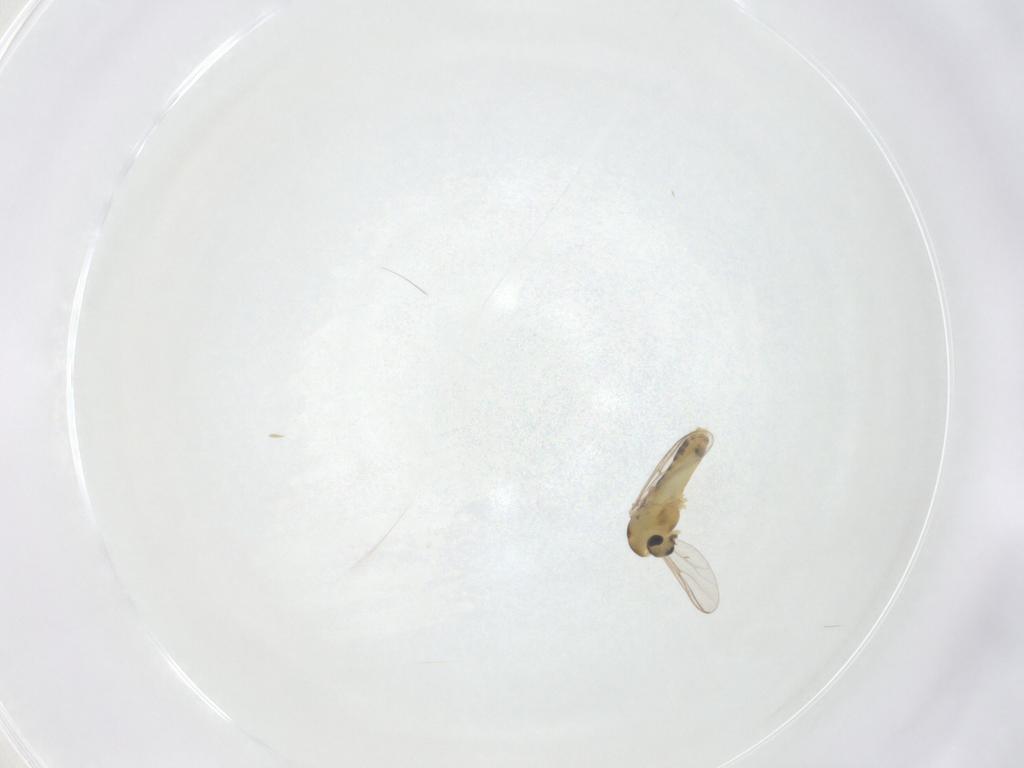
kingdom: Animalia
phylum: Arthropoda
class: Insecta
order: Diptera
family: Chironomidae
